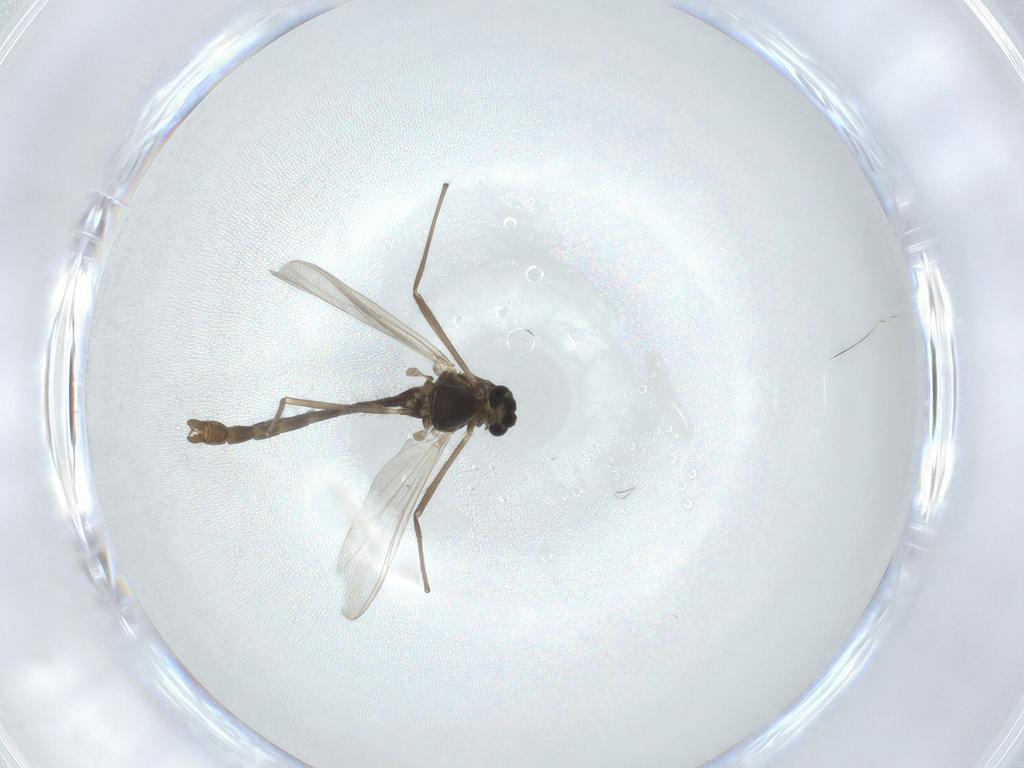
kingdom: Animalia
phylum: Arthropoda
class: Insecta
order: Diptera
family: Chironomidae
